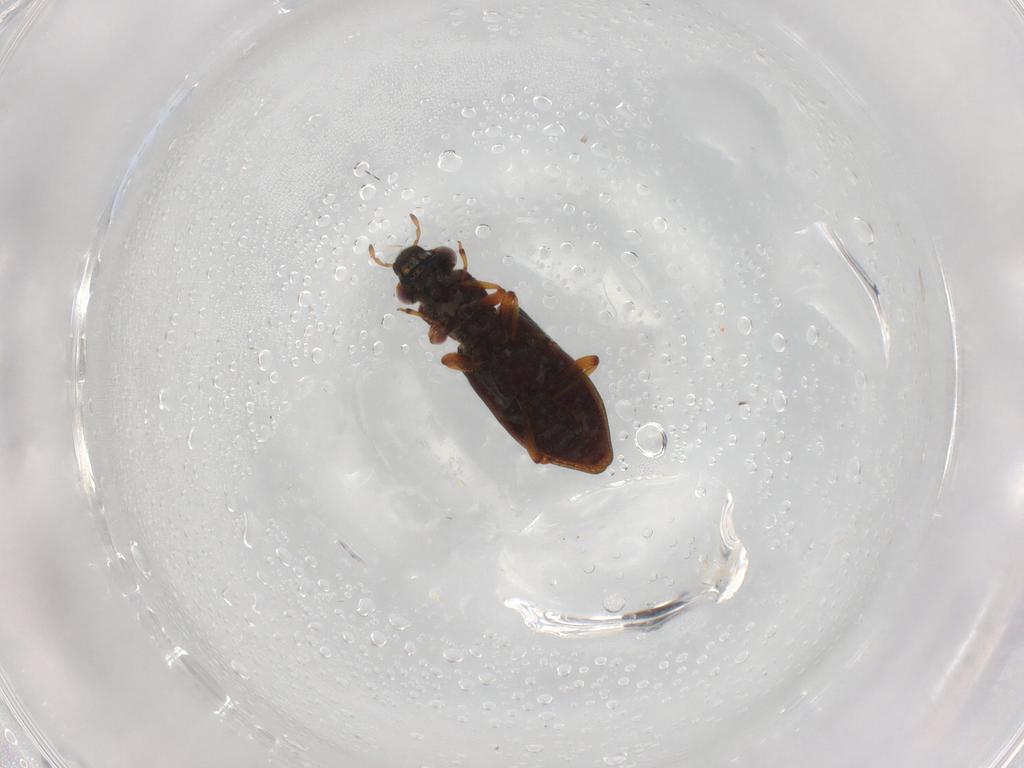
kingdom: Animalia
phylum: Arthropoda
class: Insecta
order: Coleoptera
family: Hydrophilidae
